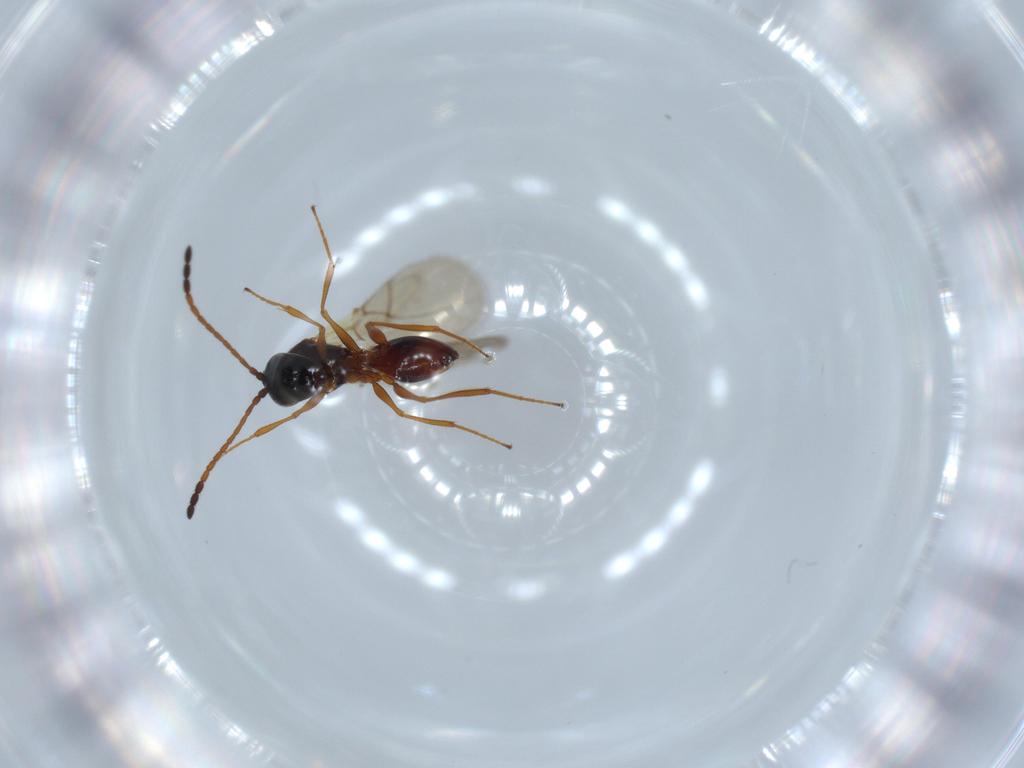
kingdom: Animalia
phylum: Arthropoda
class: Insecta
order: Hymenoptera
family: Figitidae
